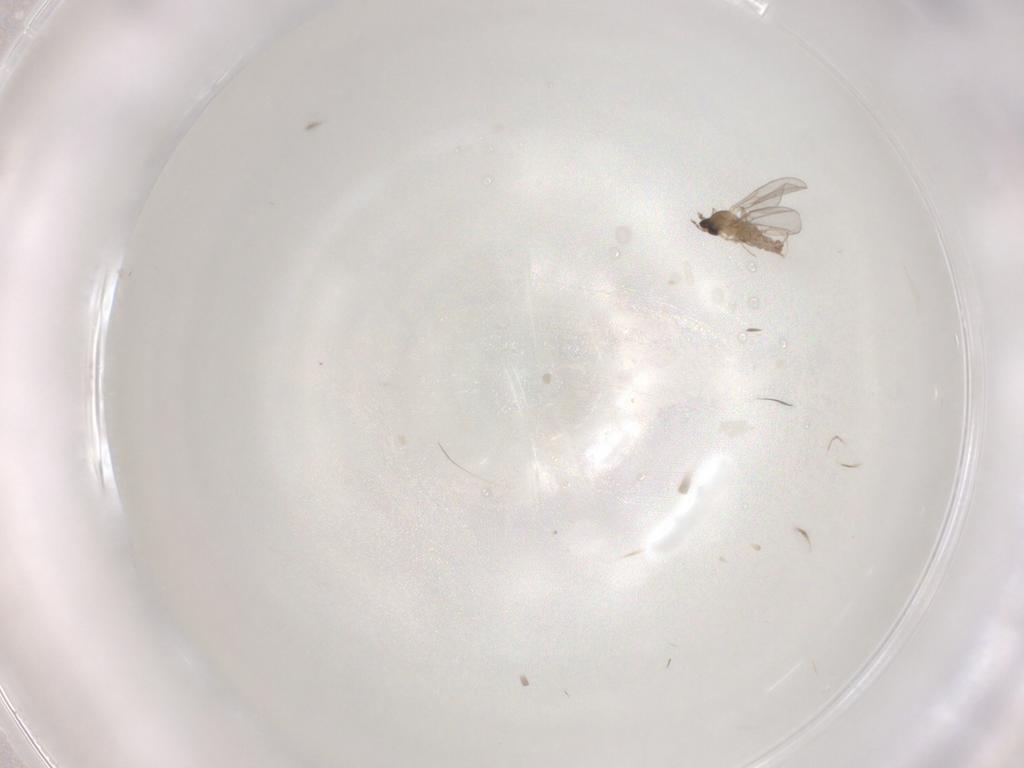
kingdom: Animalia
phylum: Arthropoda
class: Insecta
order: Diptera
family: Cecidomyiidae
